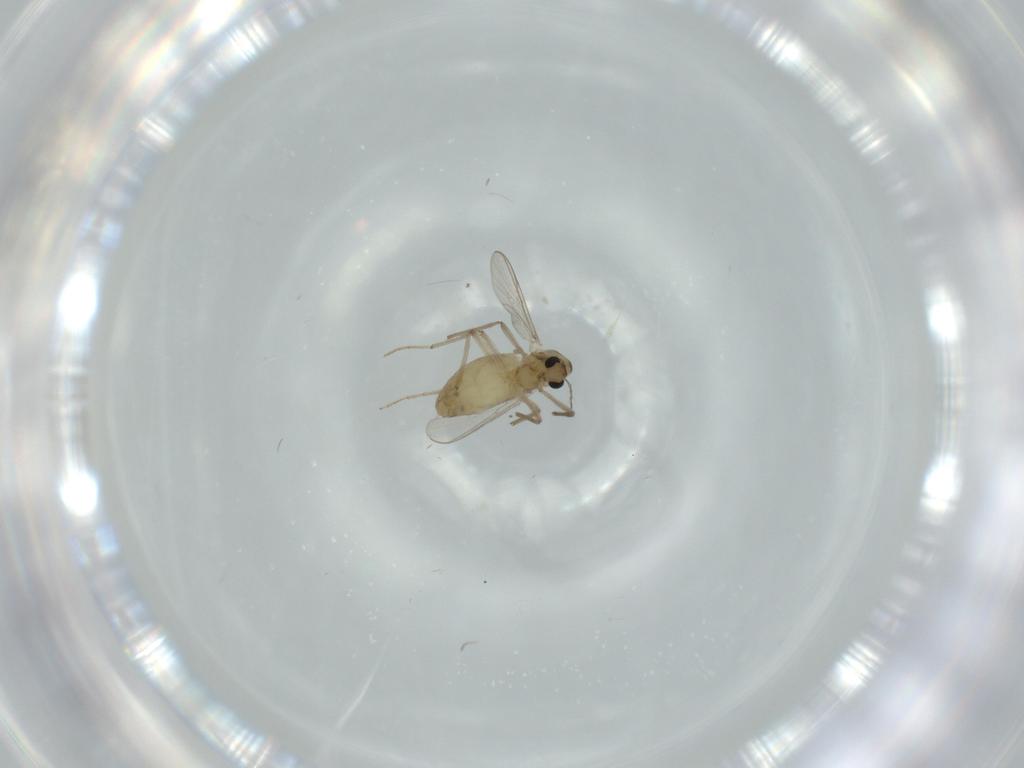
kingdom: Animalia
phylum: Arthropoda
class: Insecta
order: Diptera
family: Chironomidae
